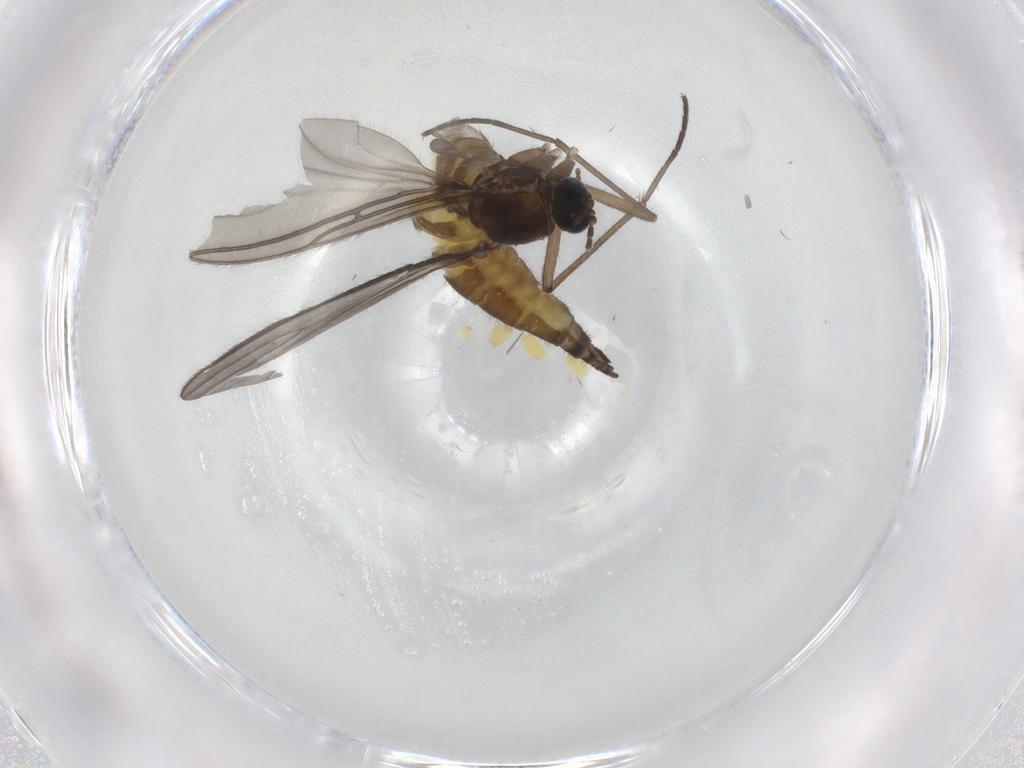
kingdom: Animalia
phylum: Arthropoda
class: Insecta
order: Diptera
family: Sciaridae
